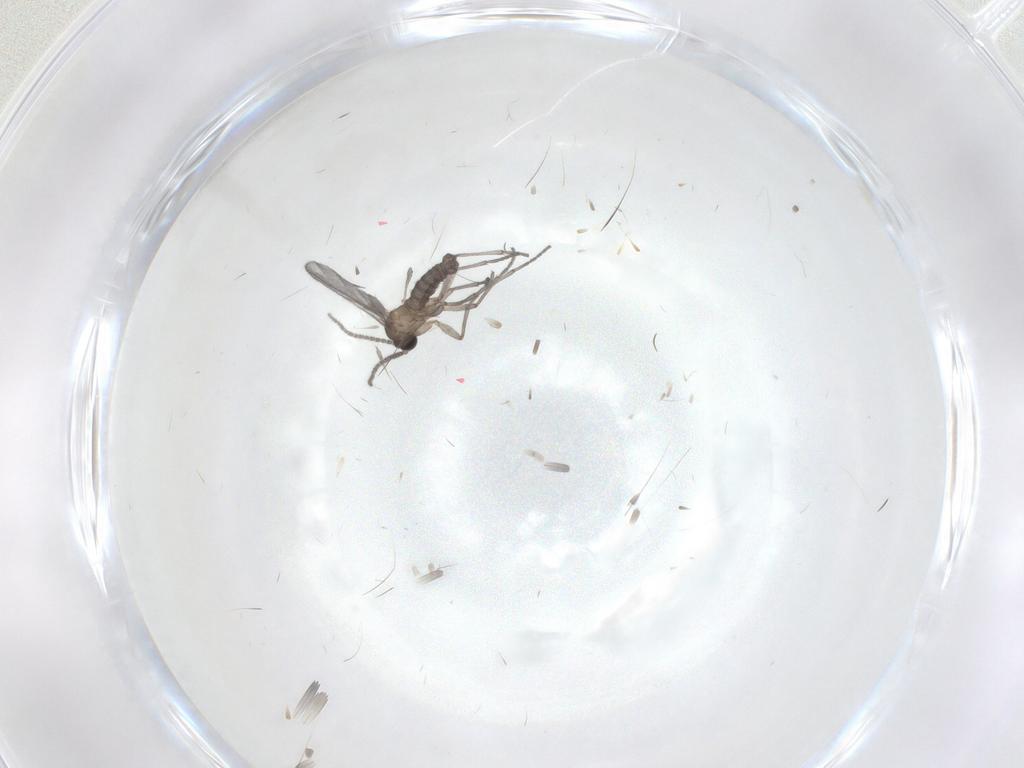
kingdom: Animalia
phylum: Arthropoda
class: Insecta
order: Diptera
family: Sciaridae
